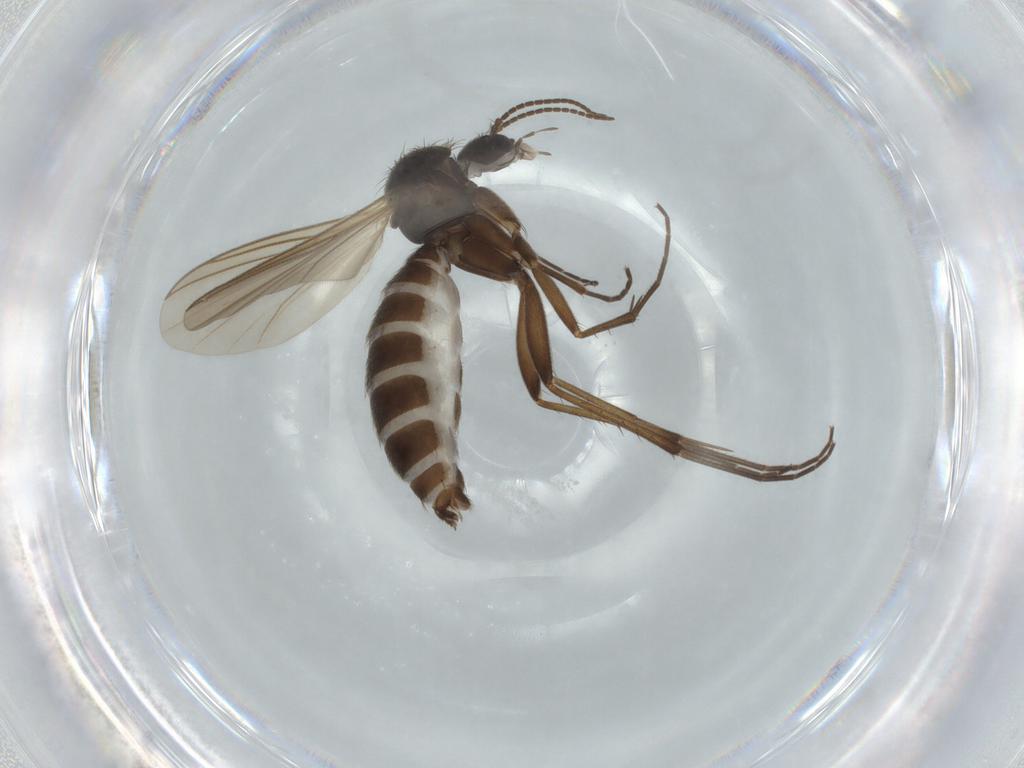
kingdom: Animalia
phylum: Arthropoda
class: Insecta
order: Diptera
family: Mycetophilidae
